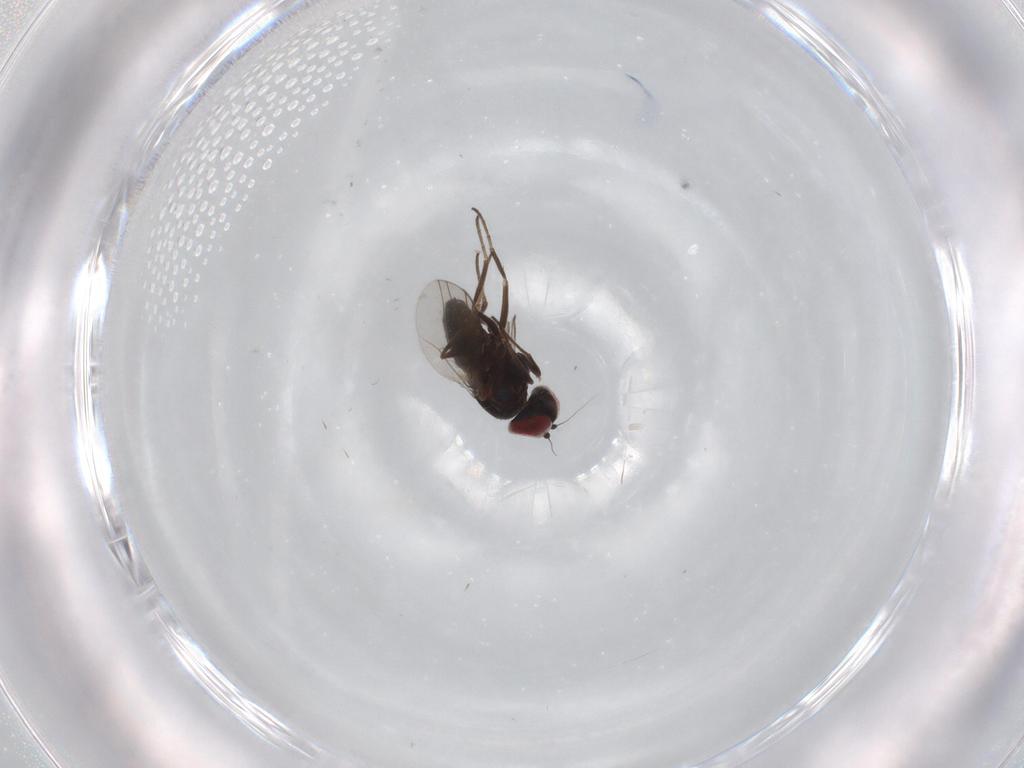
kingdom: Animalia
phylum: Arthropoda
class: Insecta
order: Diptera
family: Dolichopodidae
